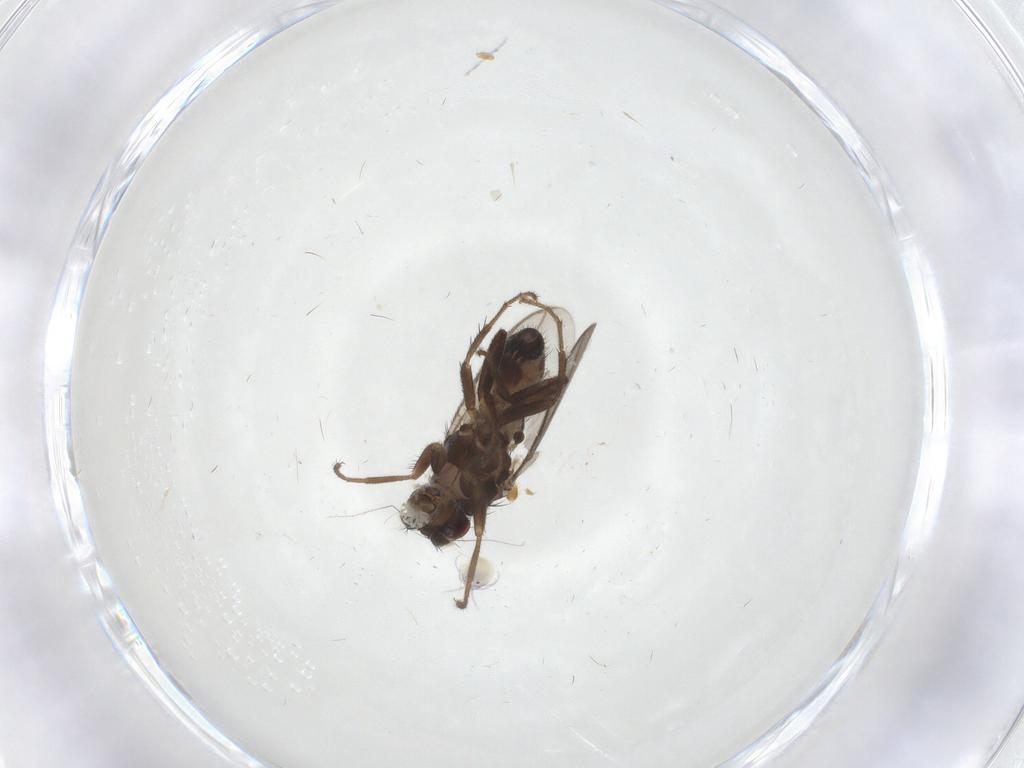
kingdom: Animalia
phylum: Arthropoda
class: Insecta
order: Diptera
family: Sphaeroceridae
